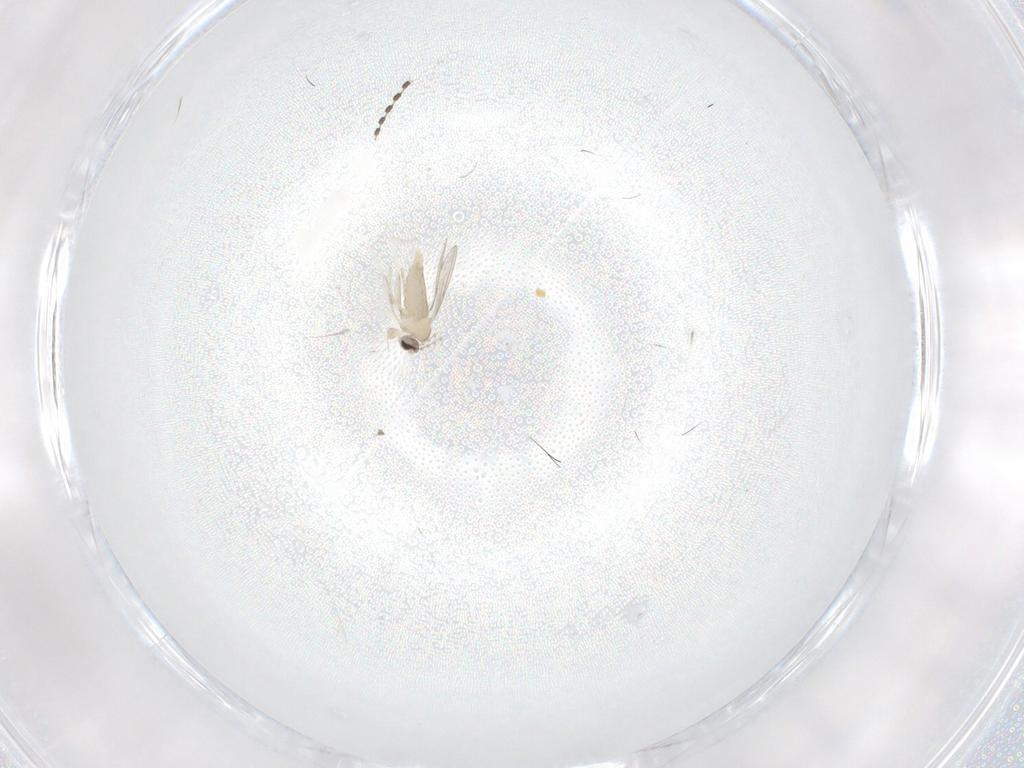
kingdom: Animalia
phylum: Arthropoda
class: Insecta
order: Diptera
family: Cecidomyiidae
